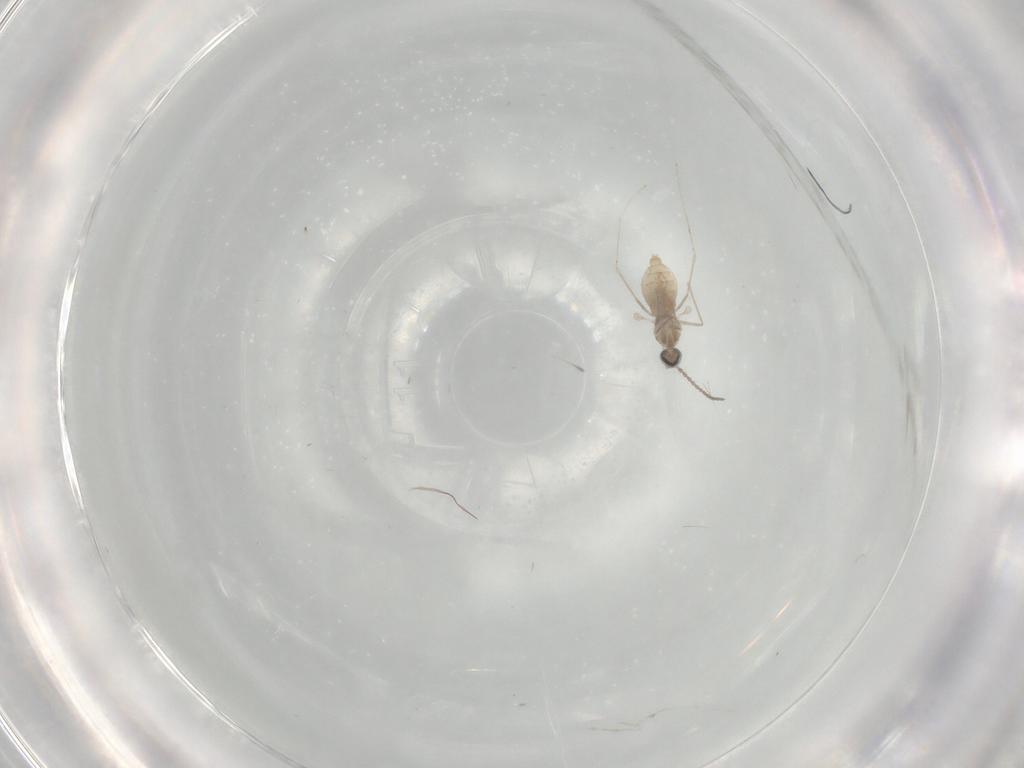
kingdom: Animalia
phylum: Arthropoda
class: Insecta
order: Diptera
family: Cecidomyiidae
